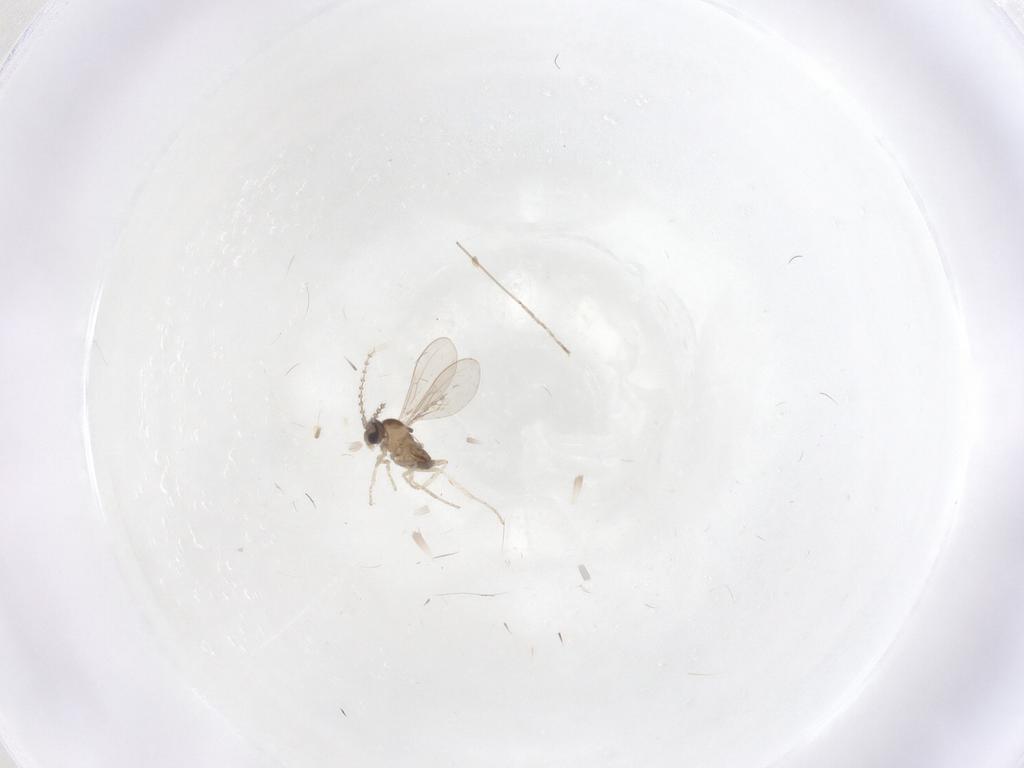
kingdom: Animalia
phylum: Arthropoda
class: Insecta
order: Diptera
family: Cecidomyiidae
